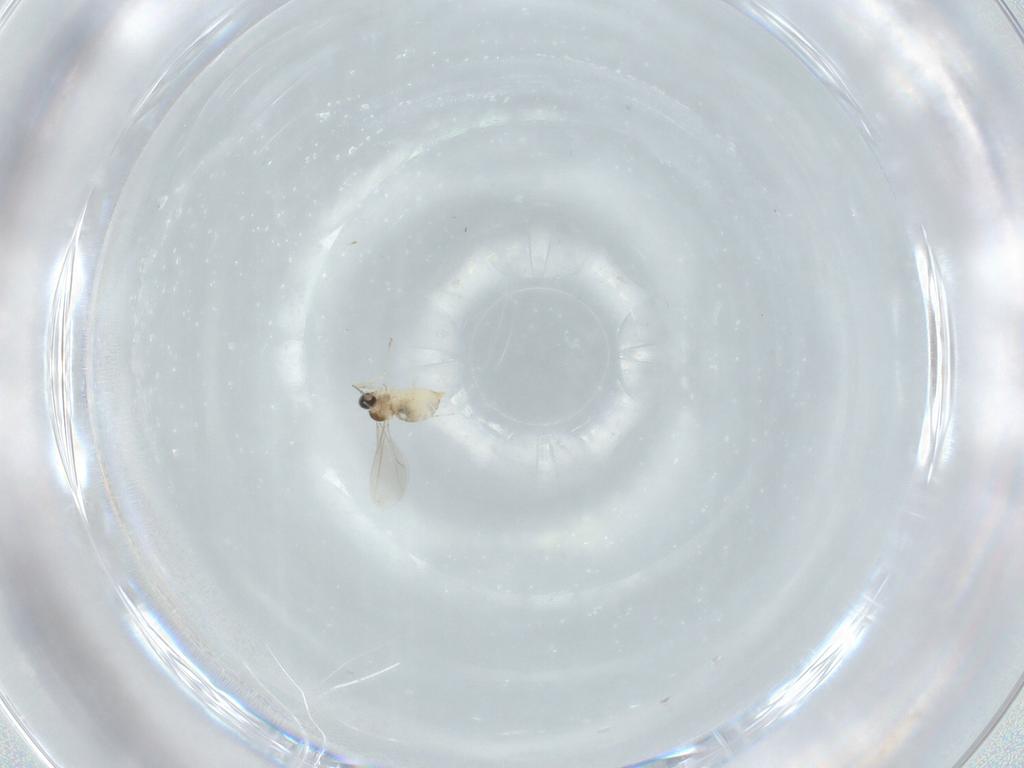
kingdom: Animalia
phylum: Arthropoda
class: Insecta
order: Diptera
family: Cecidomyiidae
